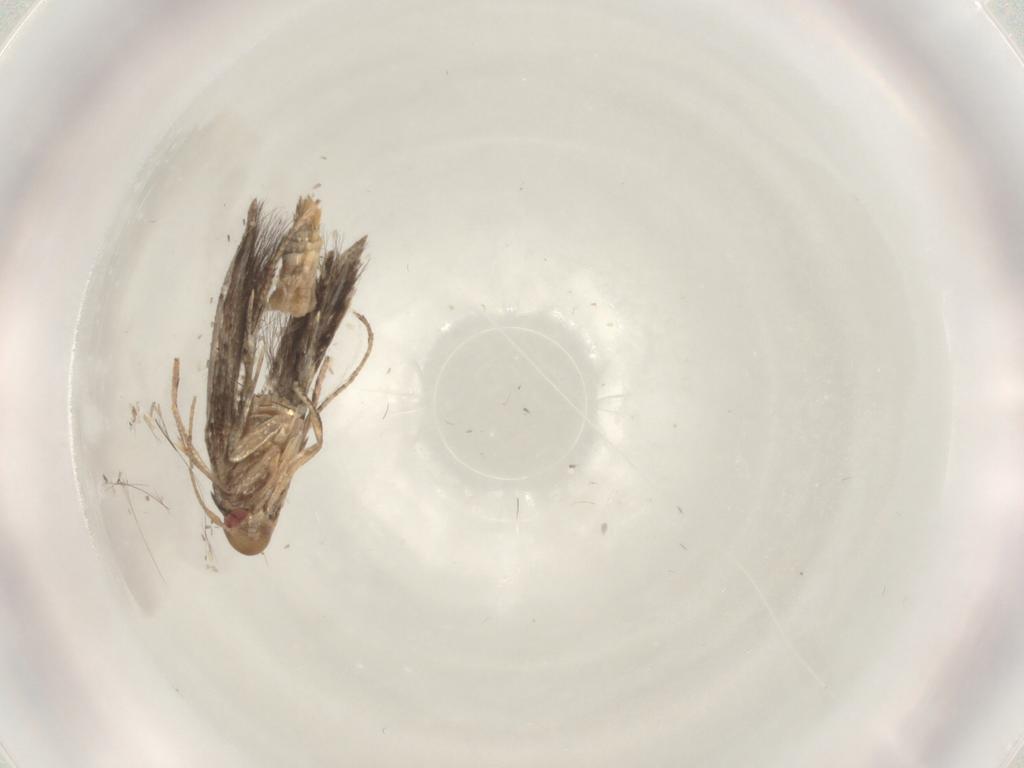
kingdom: Animalia
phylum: Arthropoda
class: Insecta
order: Lepidoptera
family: Momphidae
